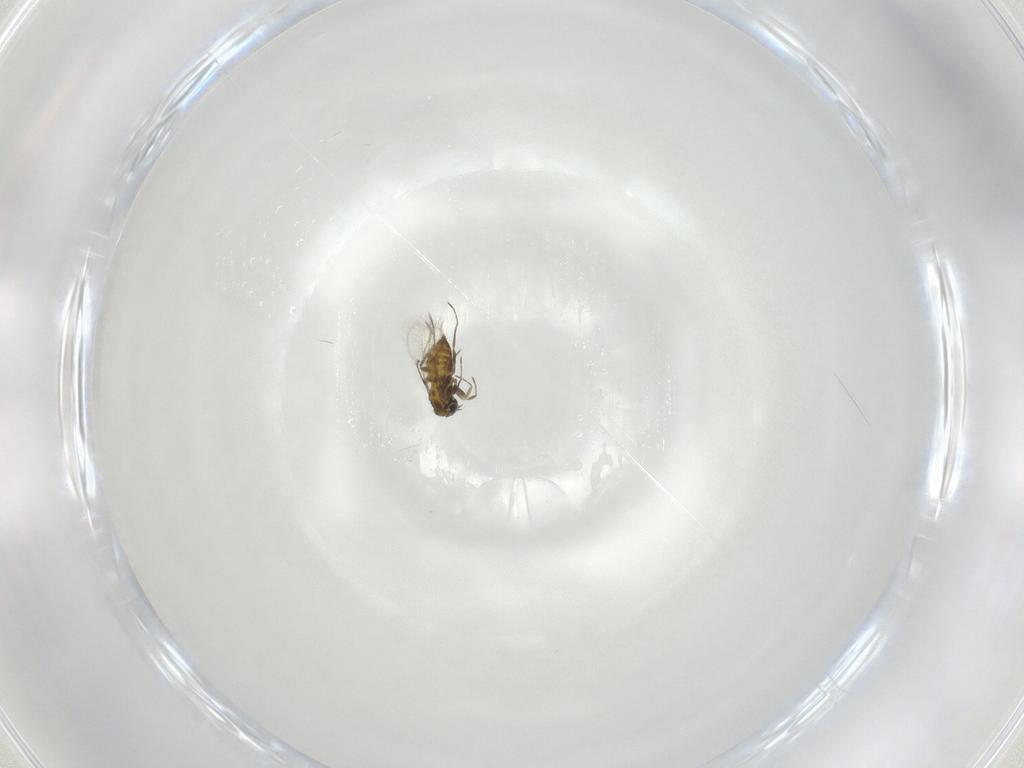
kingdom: Animalia
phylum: Arthropoda
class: Insecta
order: Hymenoptera
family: Trichogrammatidae
